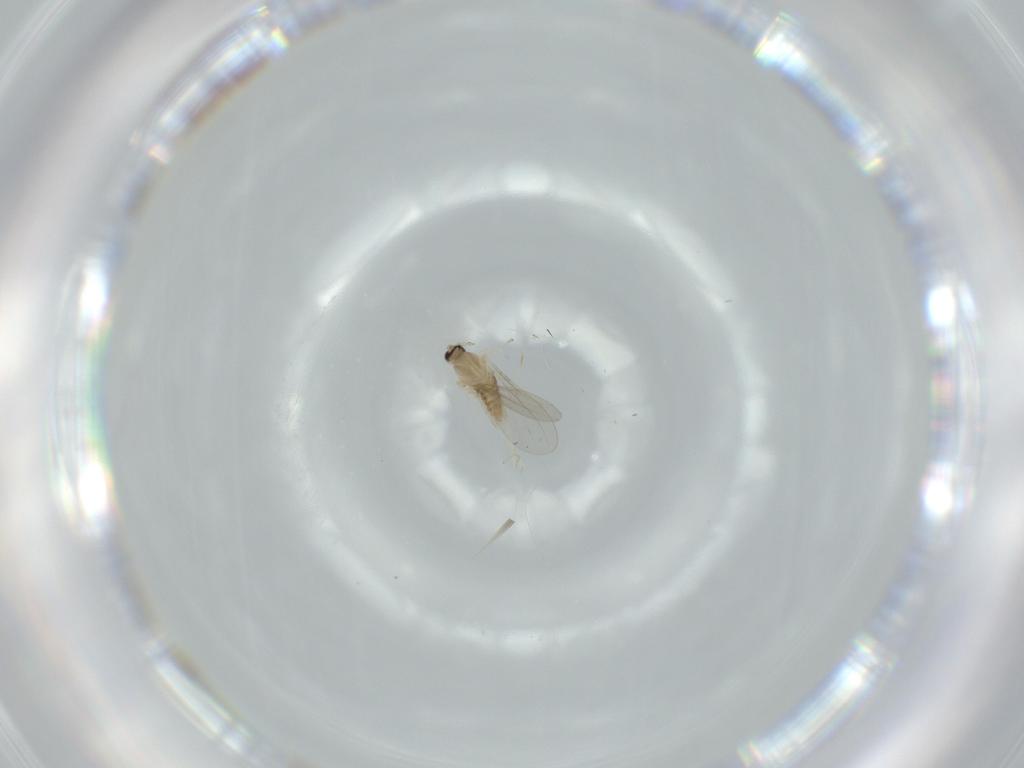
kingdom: Animalia
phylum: Arthropoda
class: Insecta
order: Diptera
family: Cecidomyiidae
